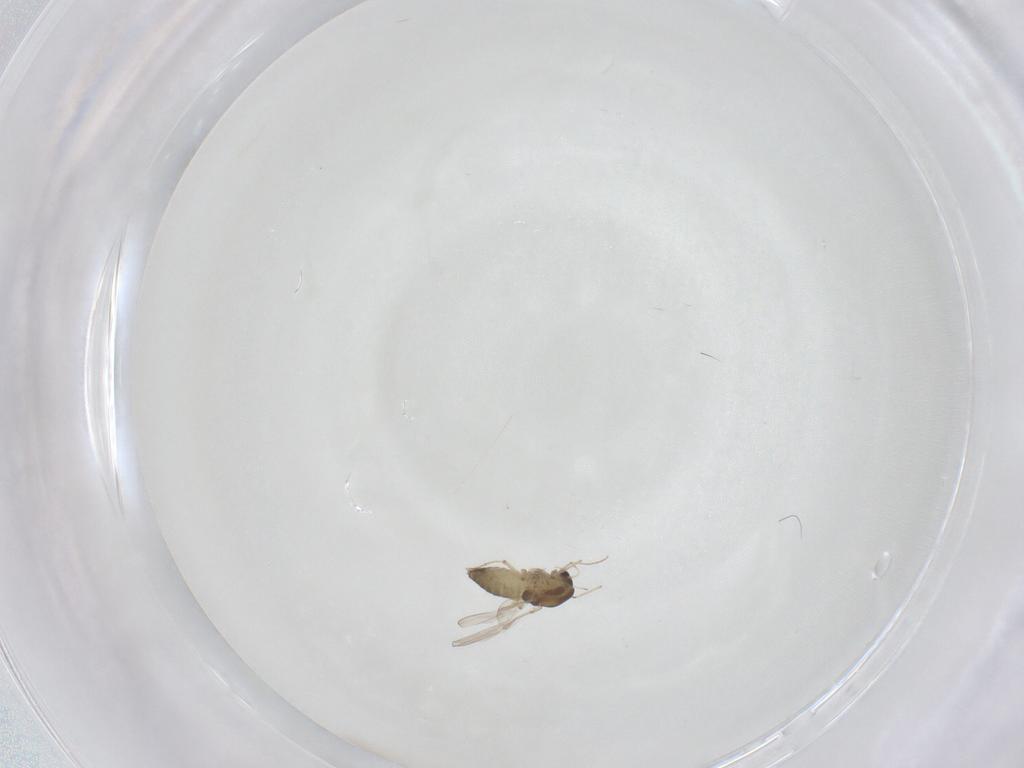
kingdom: Animalia
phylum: Arthropoda
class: Insecta
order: Diptera
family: Chironomidae
